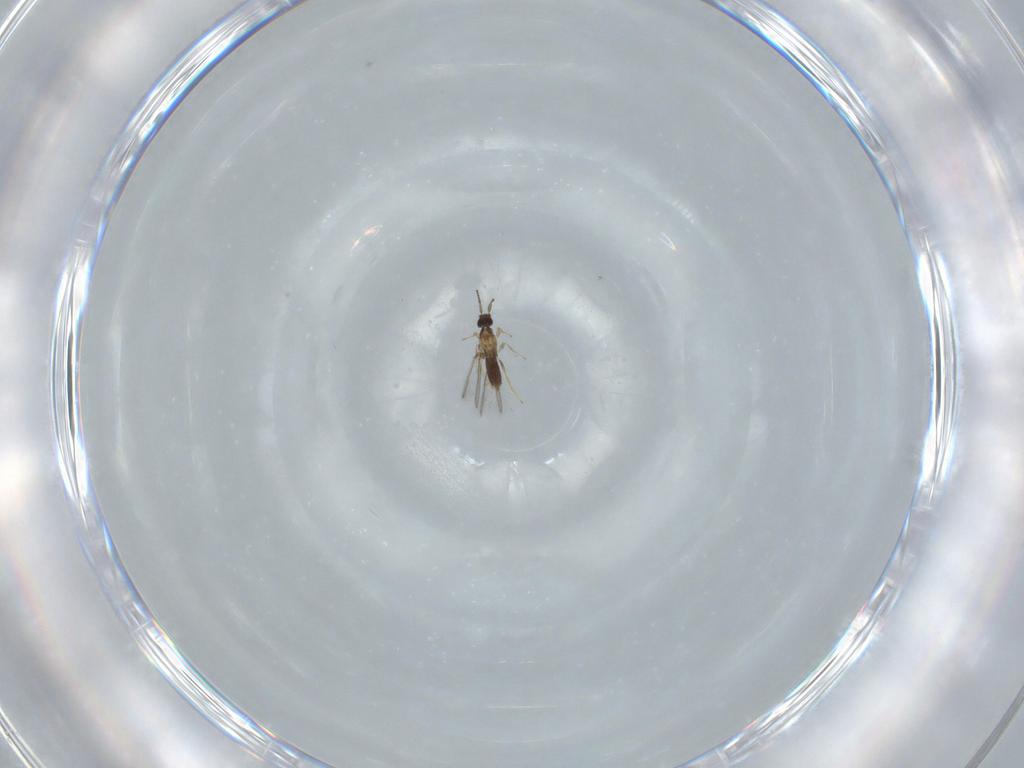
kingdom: Animalia
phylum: Arthropoda
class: Insecta
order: Hymenoptera
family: Mymaridae
